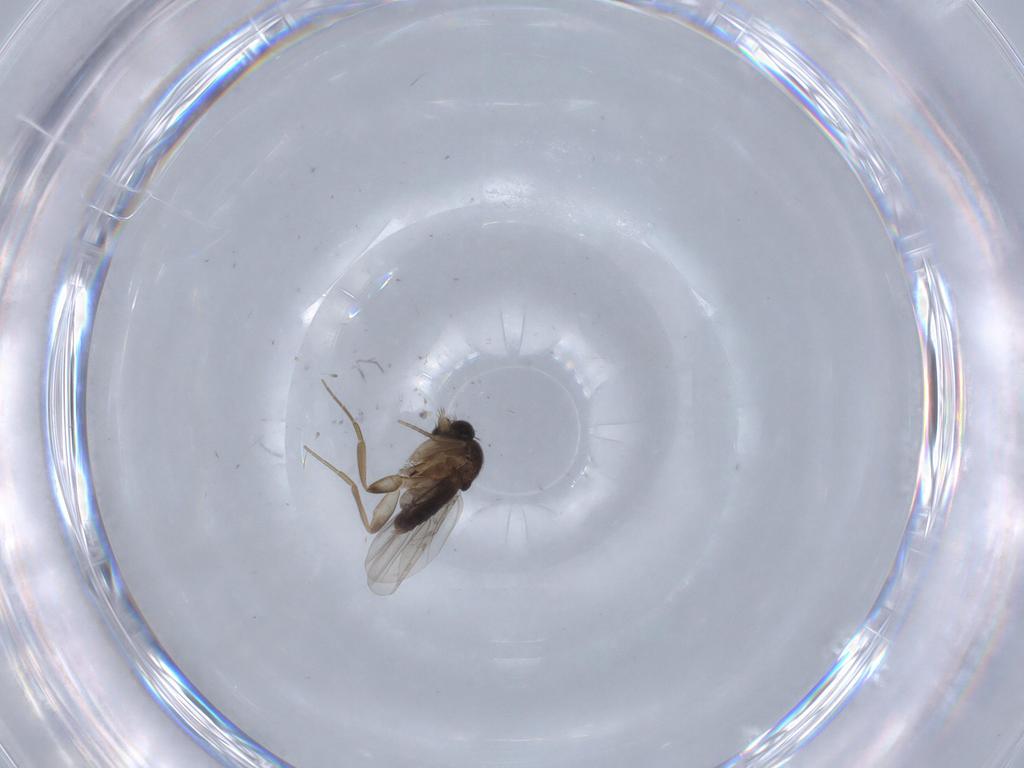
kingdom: Animalia
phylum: Arthropoda
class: Insecta
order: Diptera
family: Phoridae
